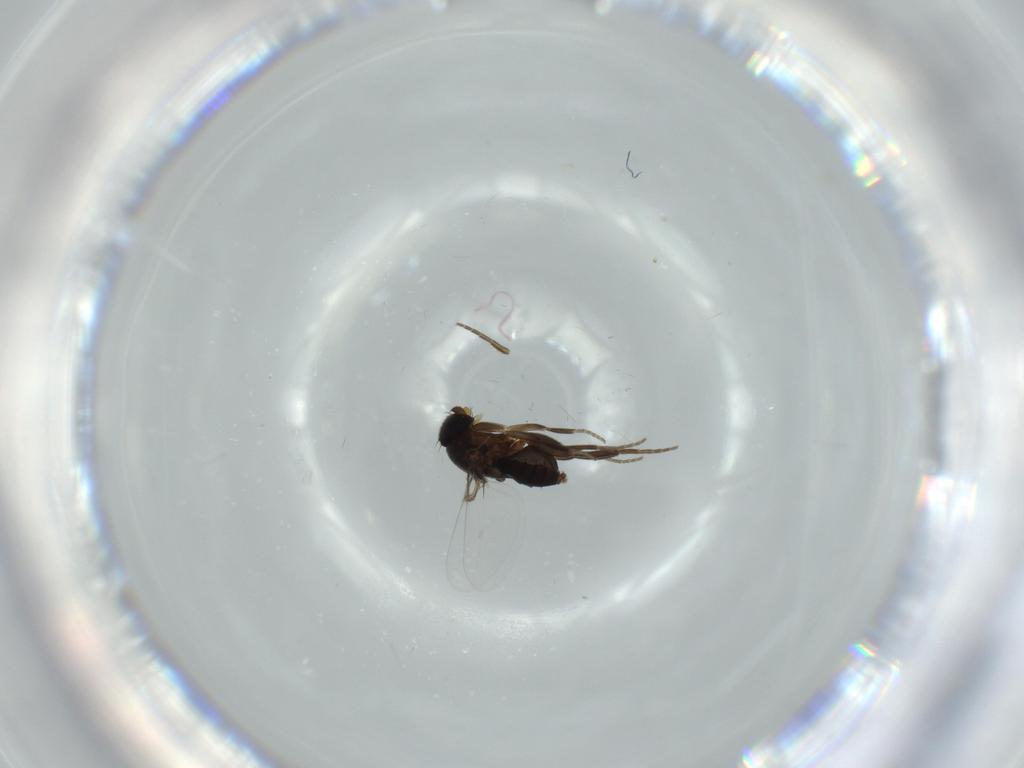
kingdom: Animalia
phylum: Arthropoda
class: Insecta
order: Diptera
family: Phoridae
